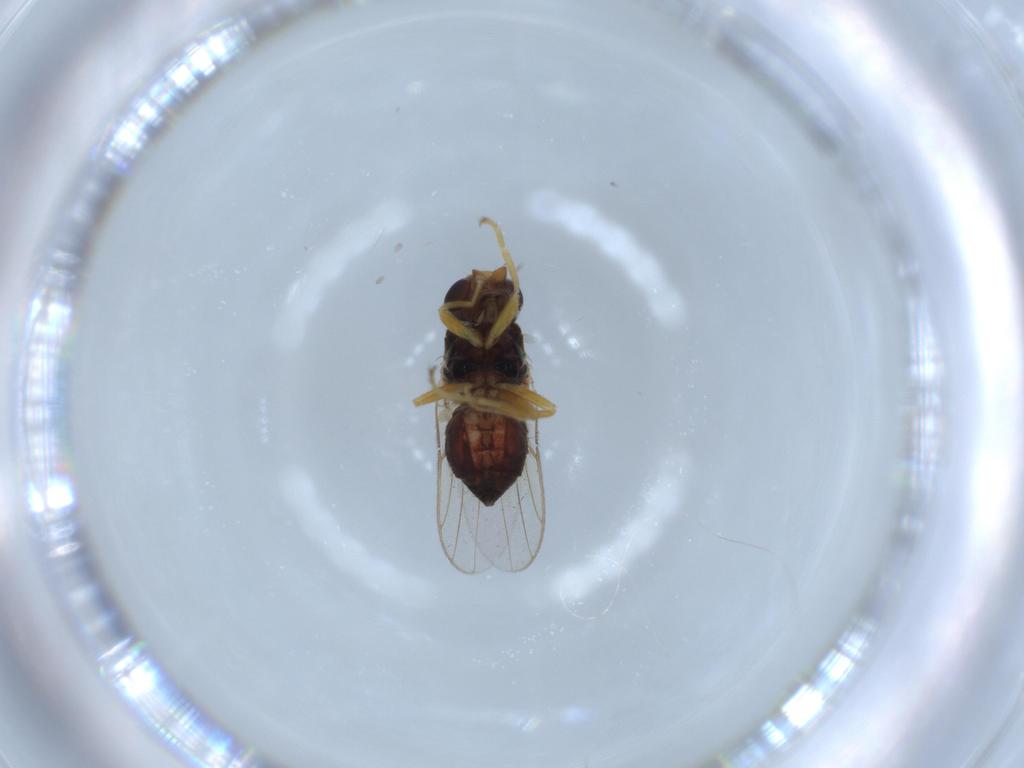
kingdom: Animalia
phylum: Arthropoda
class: Insecta
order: Diptera
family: Chloropidae
